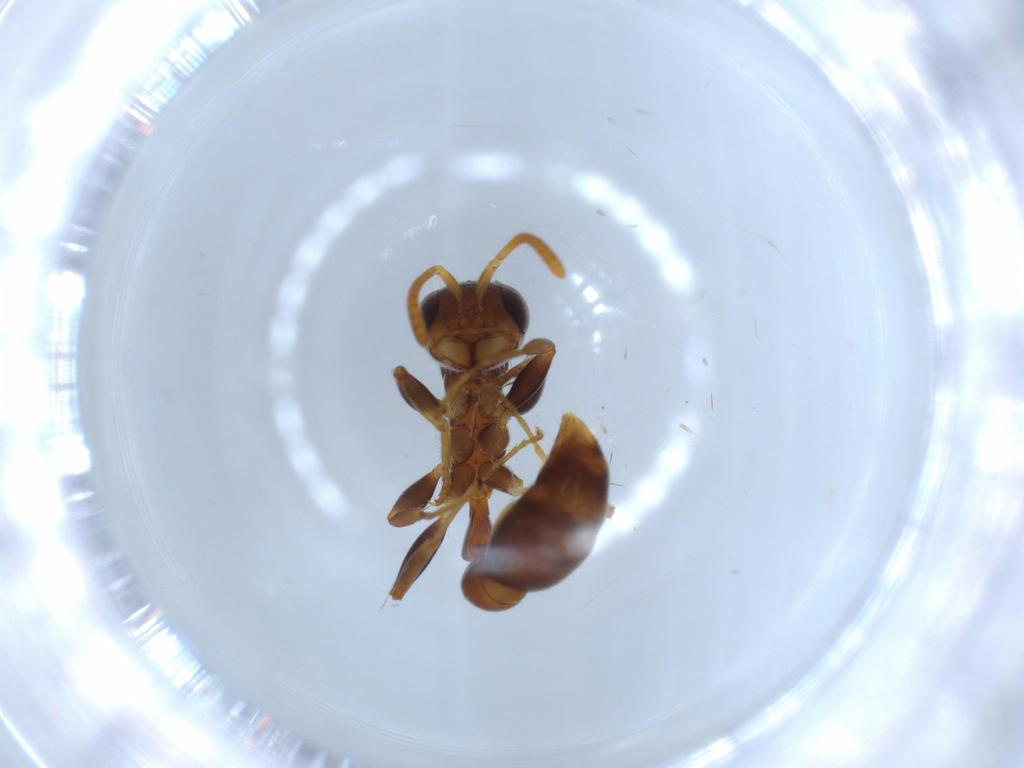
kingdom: Animalia
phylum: Arthropoda
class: Insecta
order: Hymenoptera
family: Formicidae
